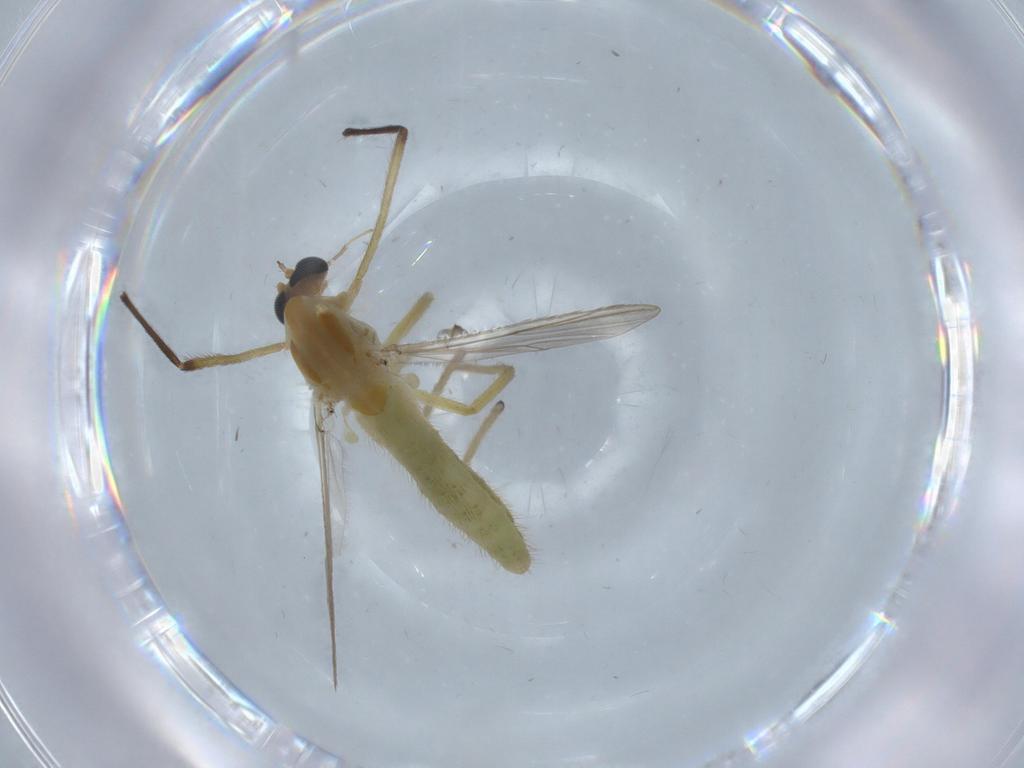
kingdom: Animalia
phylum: Arthropoda
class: Insecta
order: Diptera
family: Chironomidae
